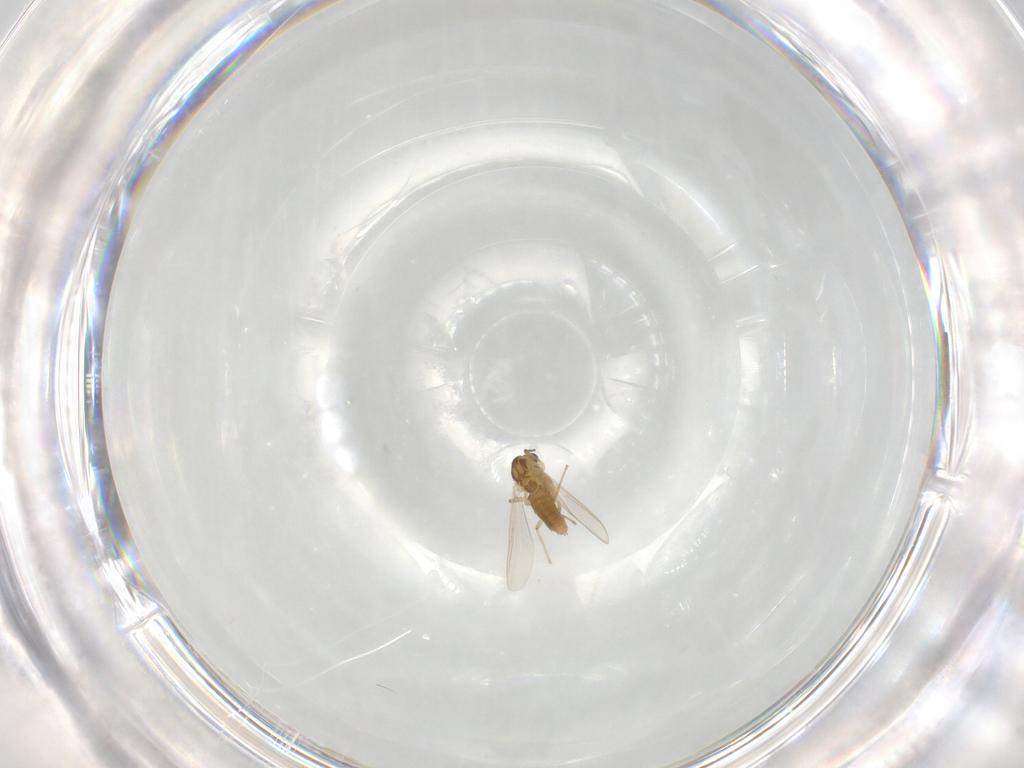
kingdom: Animalia
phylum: Arthropoda
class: Insecta
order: Diptera
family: Chironomidae
